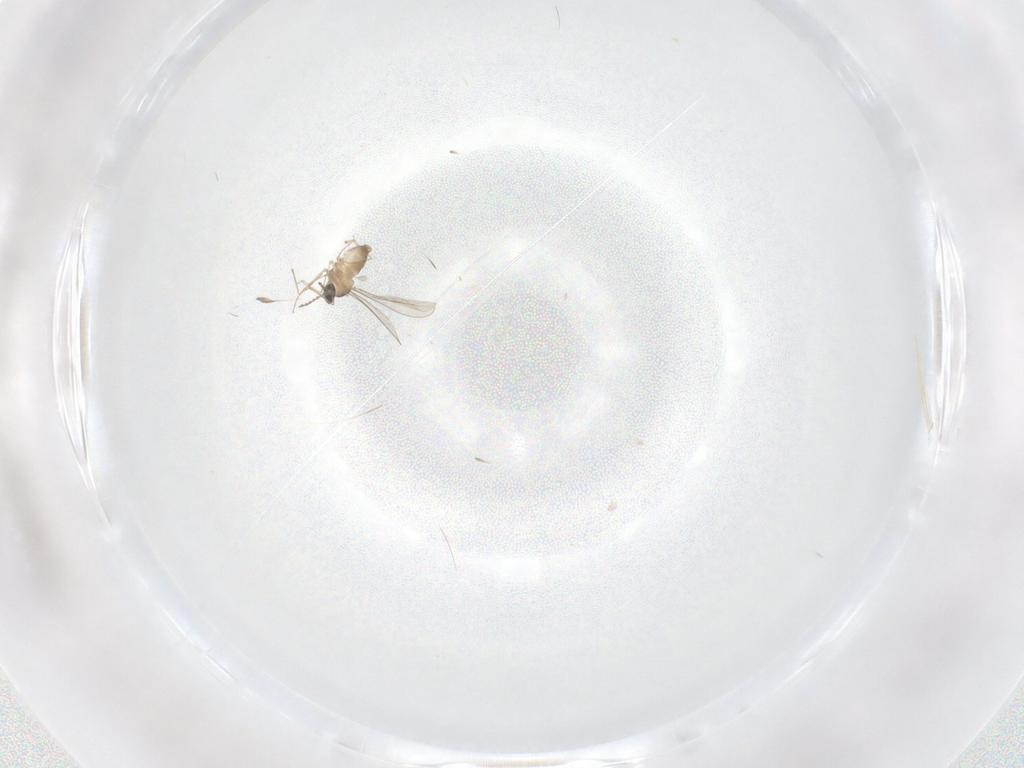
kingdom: Animalia
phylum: Arthropoda
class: Insecta
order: Diptera
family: Cecidomyiidae
